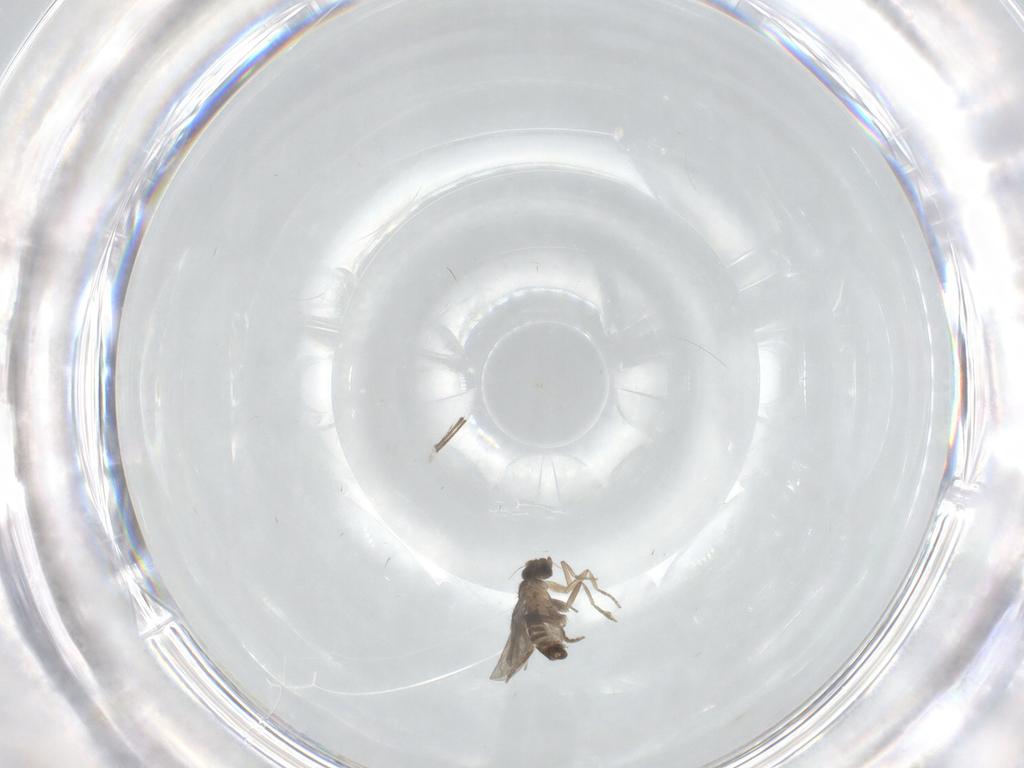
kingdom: Animalia
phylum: Arthropoda
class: Insecta
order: Diptera
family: Sciaridae
